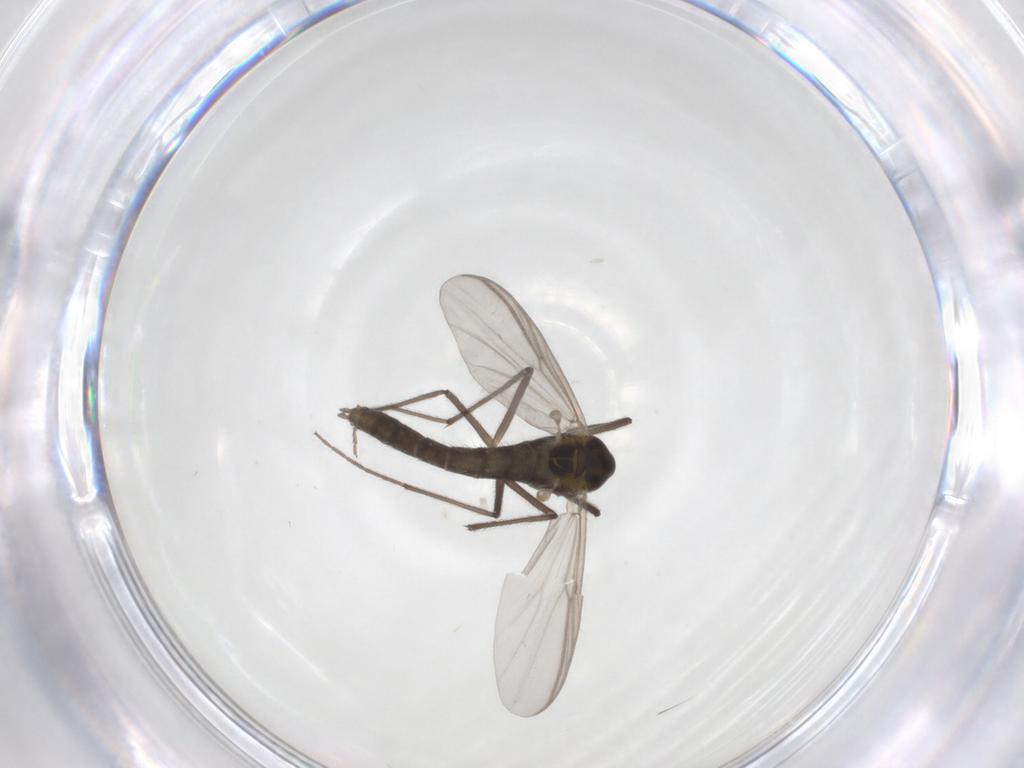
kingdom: Animalia
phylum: Arthropoda
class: Insecta
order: Diptera
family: Chironomidae
